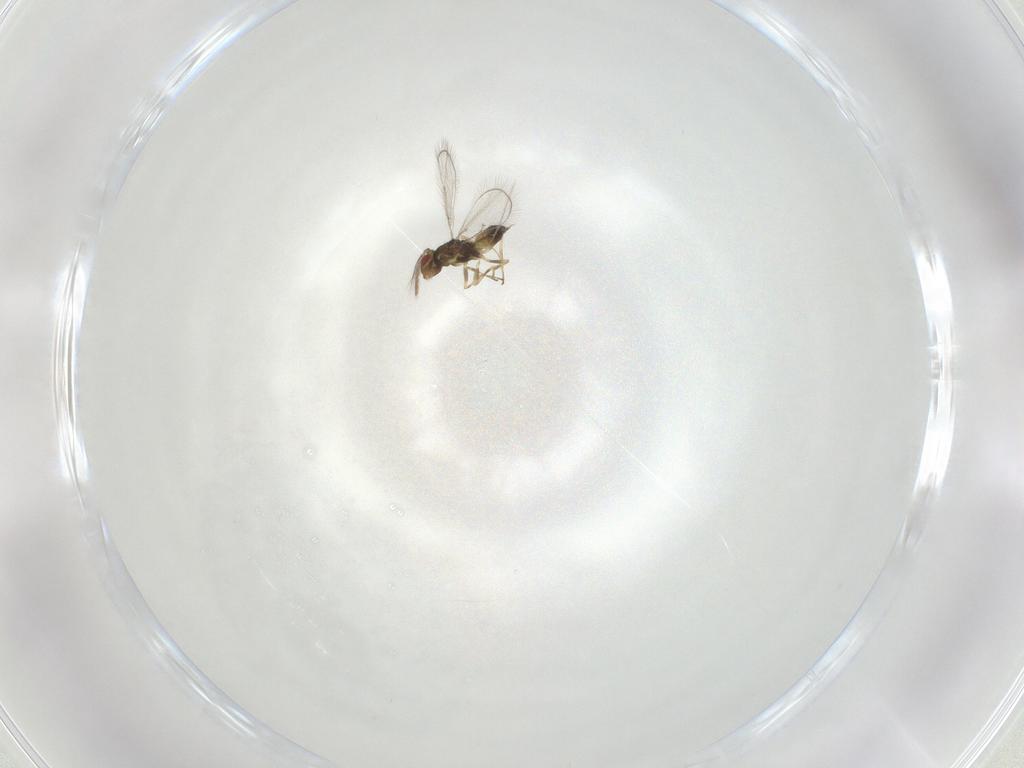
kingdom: Animalia
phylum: Arthropoda
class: Insecta
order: Hymenoptera
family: Eulophidae
